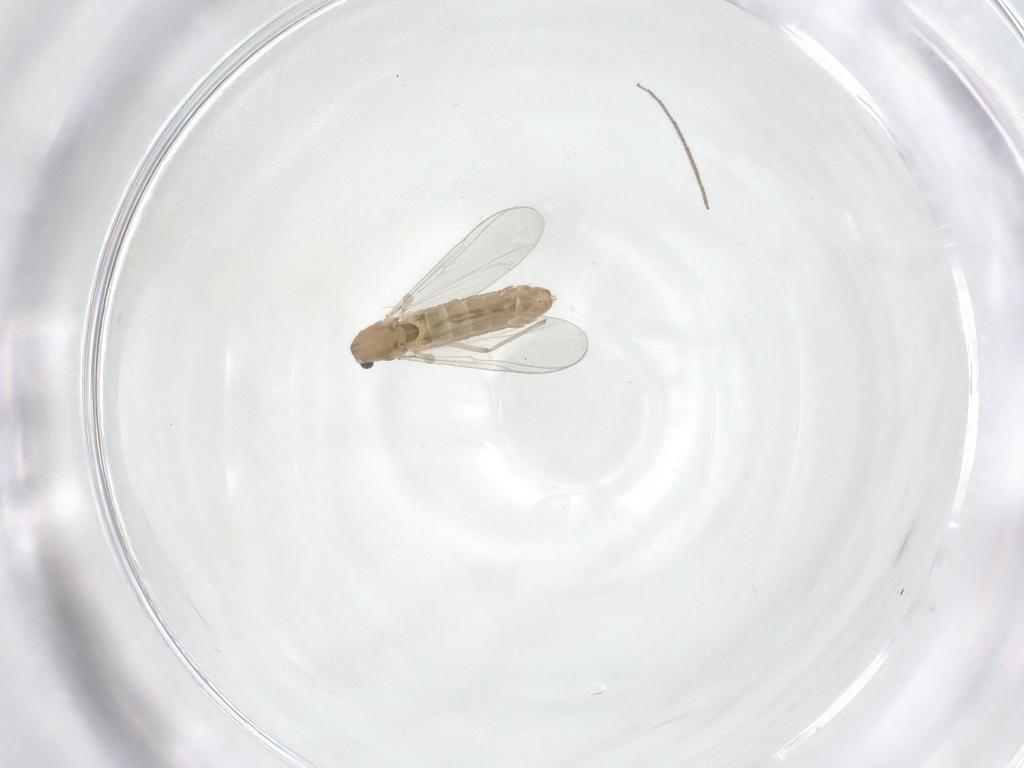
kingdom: Animalia
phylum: Arthropoda
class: Insecta
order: Diptera
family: Chironomidae
